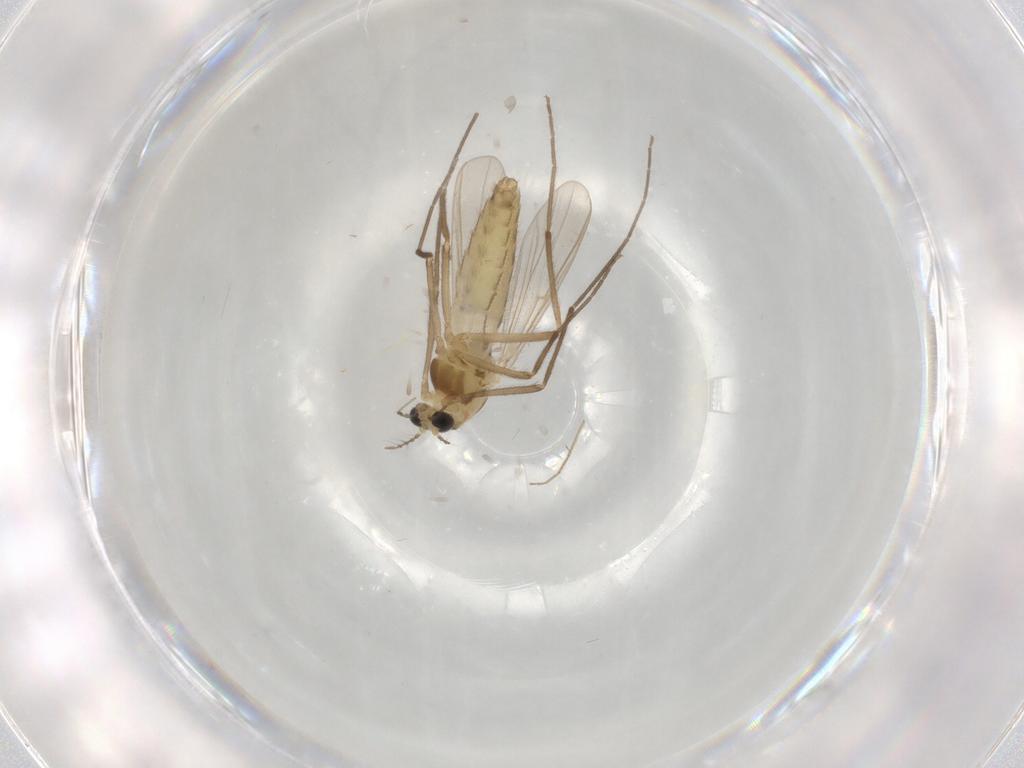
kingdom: Animalia
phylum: Arthropoda
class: Insecta
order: Diptera
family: Chironomidae
